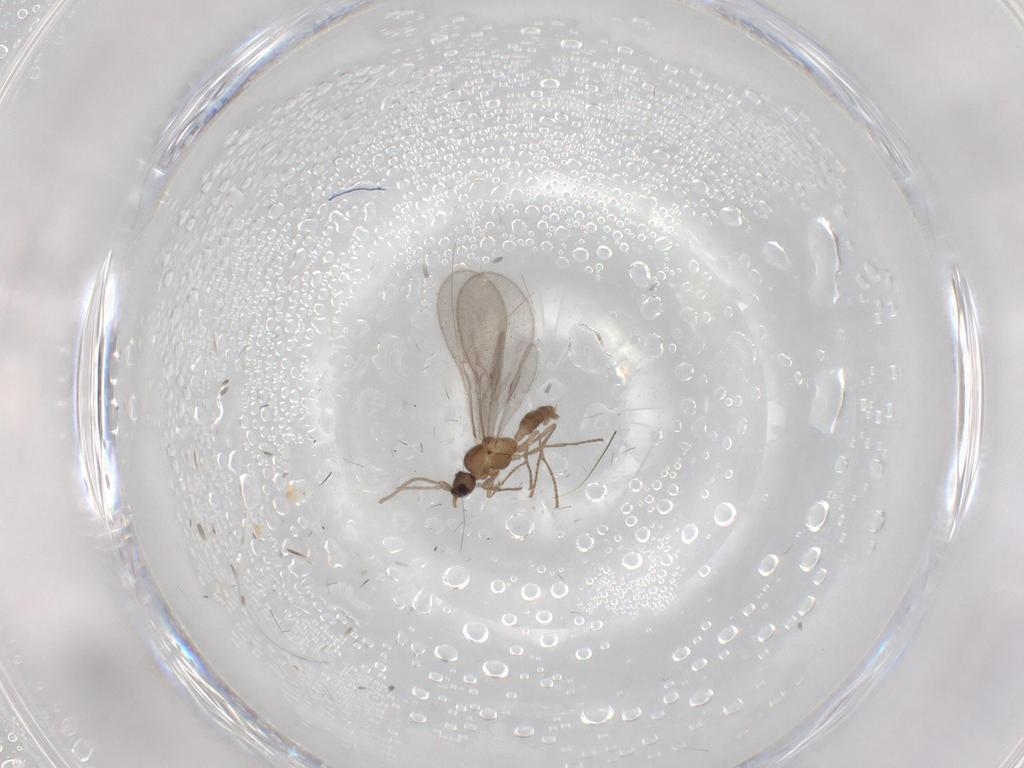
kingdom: Animalia
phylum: Arthropoda
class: Insecta
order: Hymenoptera
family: Formicidae
